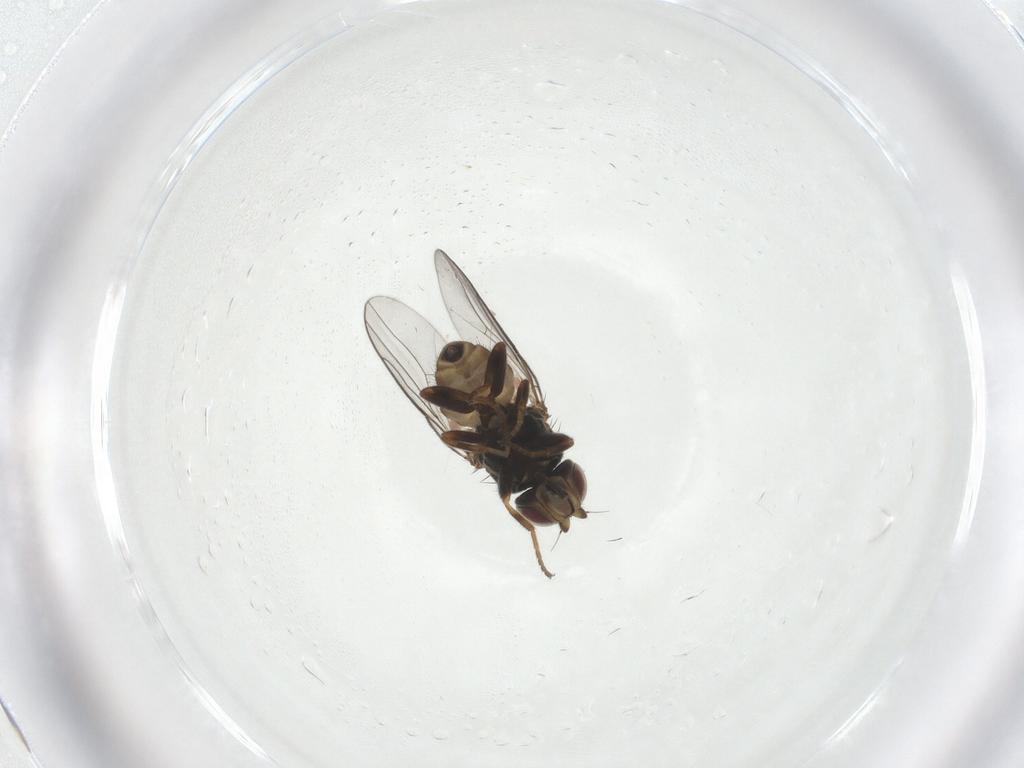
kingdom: Animalia
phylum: Arthropoda
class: Insecta
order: Diptera
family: Chloropidae
